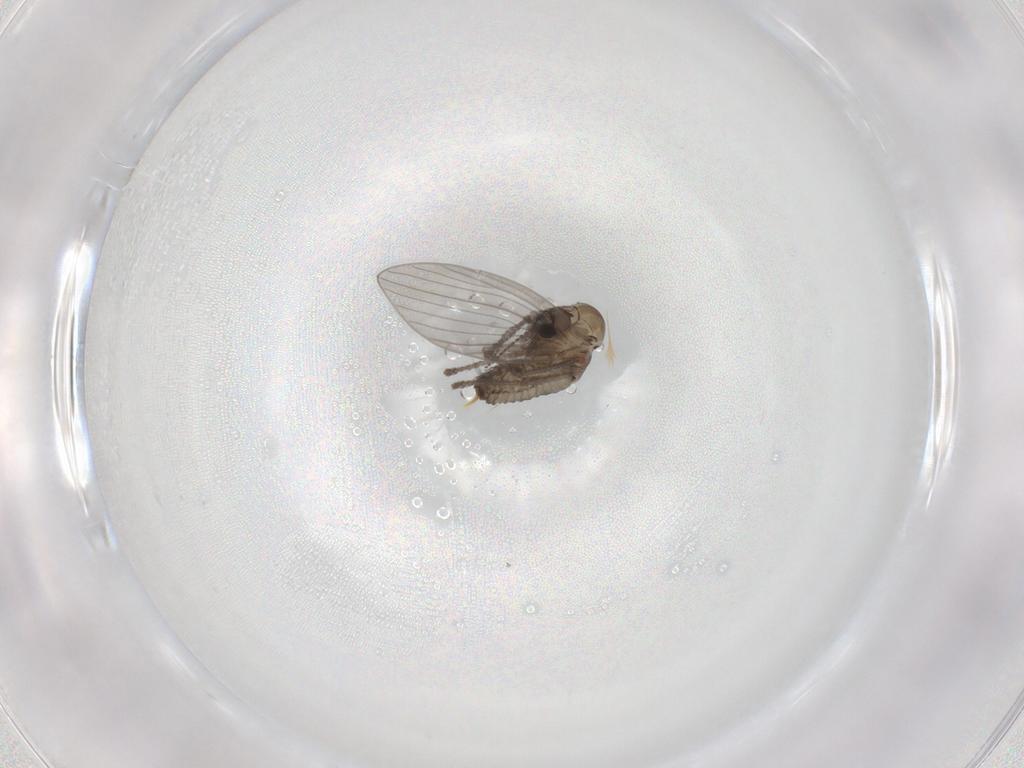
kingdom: Animalia
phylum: Arthropoda
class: Insecta
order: Diptera
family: Psychodidae
